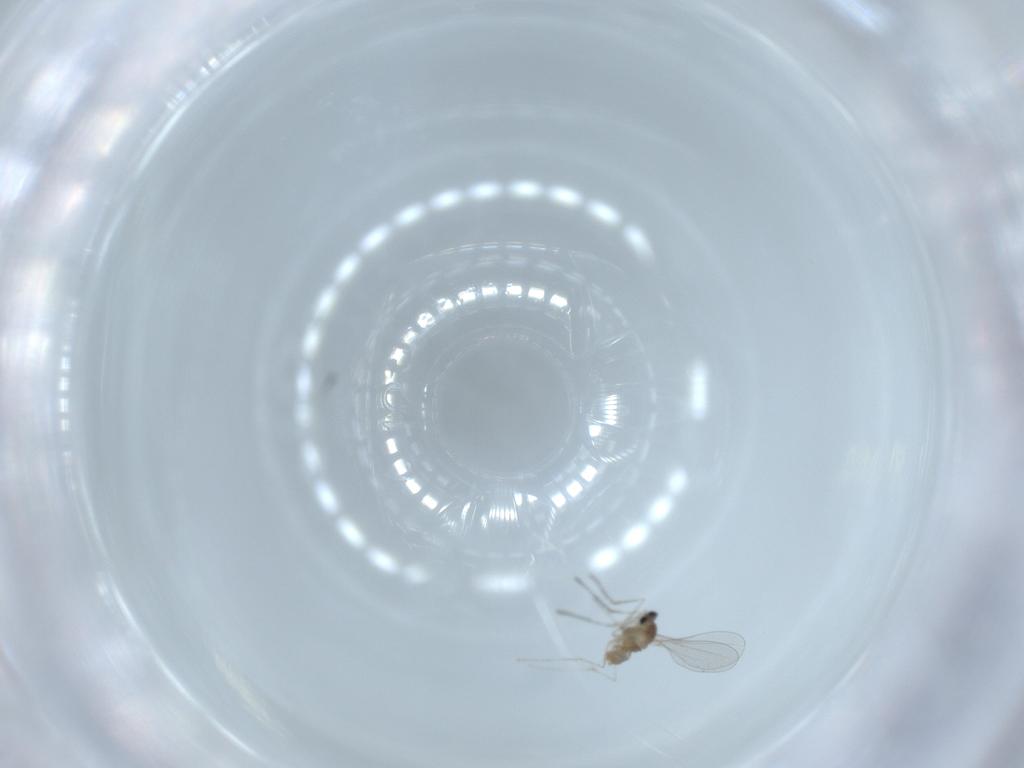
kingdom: Animalia
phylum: Arthropoda
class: Insecta
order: Diptera
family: Cecidomyiidae
